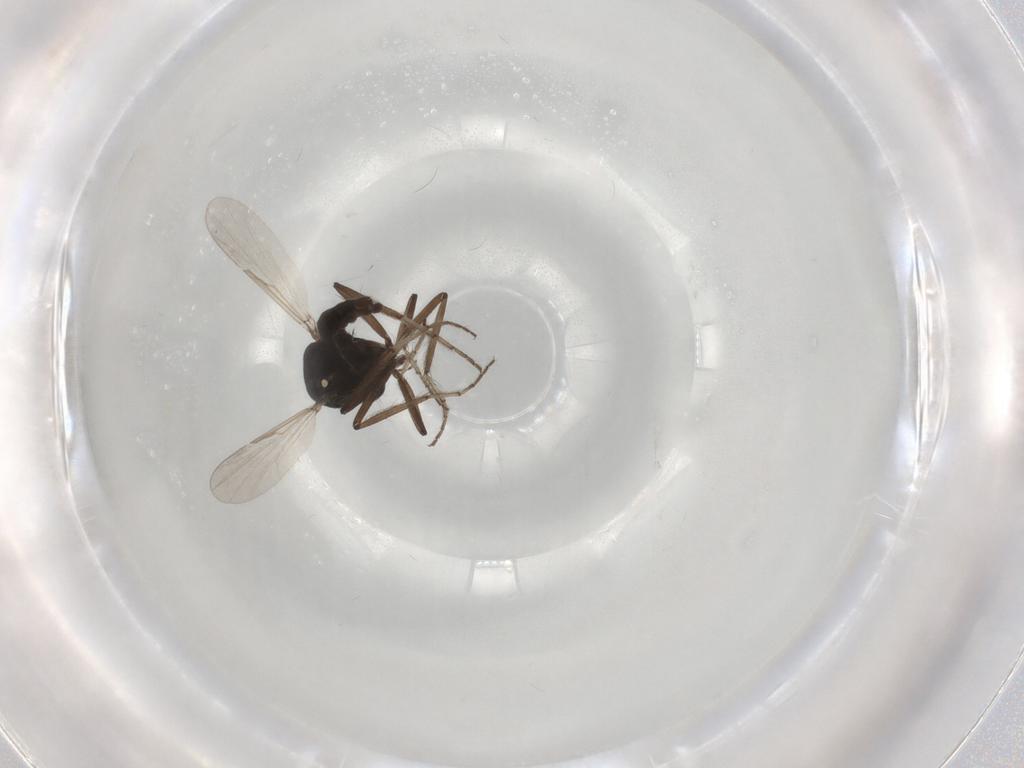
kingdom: Animalia
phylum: Arthropoda
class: Insecta
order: Diptera
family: Ceratopogonidae
